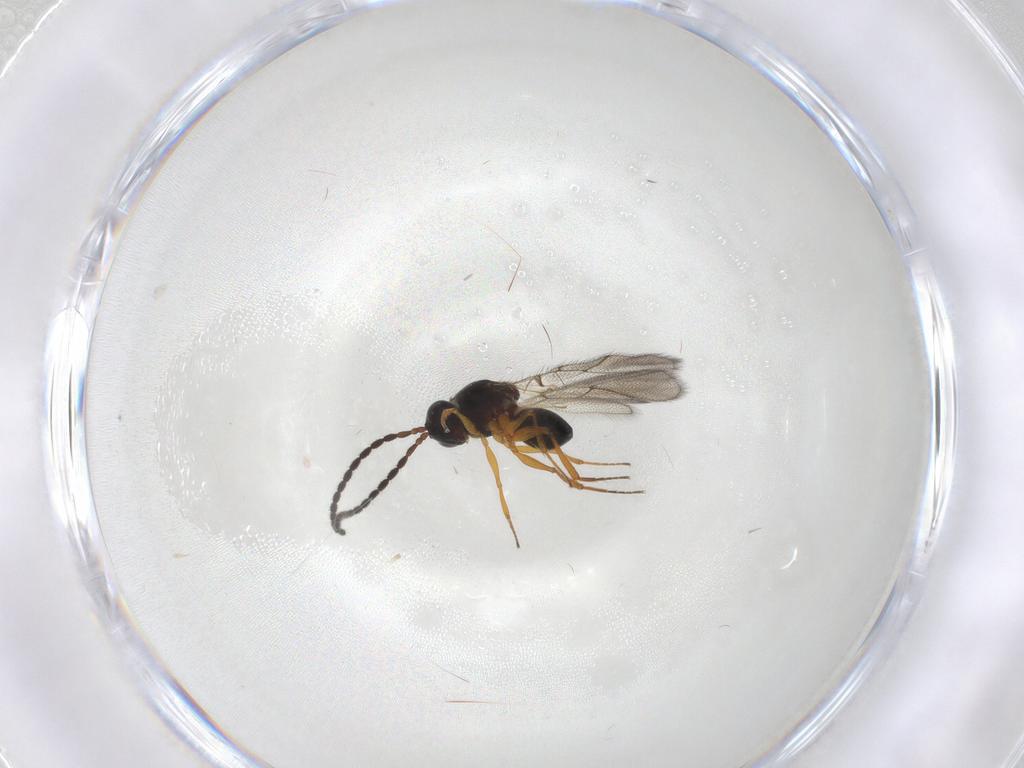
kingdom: Animalia
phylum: Arthropoda
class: Insecta
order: Hymenoptera
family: Figitidae
